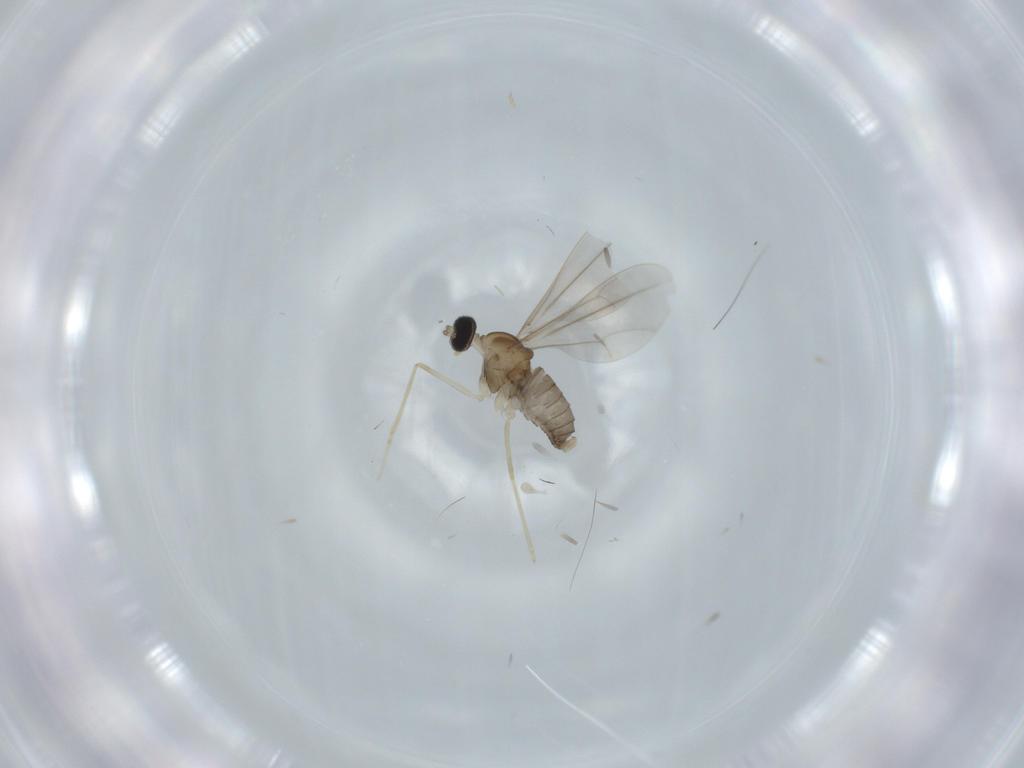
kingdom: Animalia
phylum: Arthropoda
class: Insecta
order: Diptera
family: Cecidomyiidae
